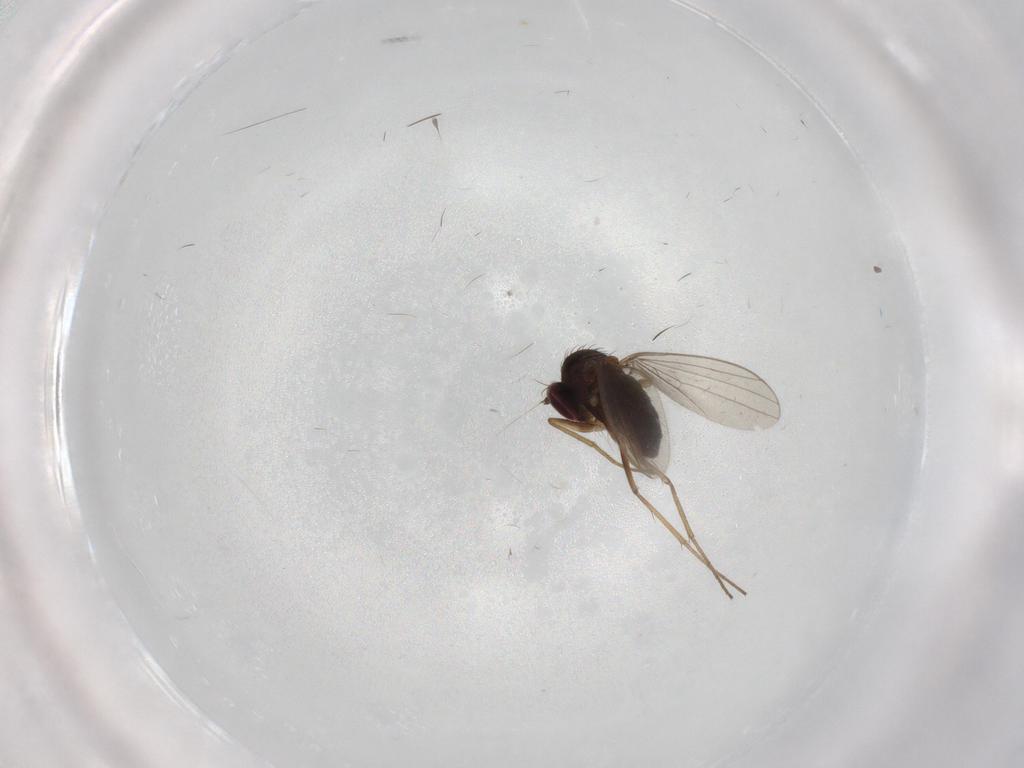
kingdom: Animalia
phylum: Arthropoda
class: Insecta
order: Diptera
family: Dolichopodidae
